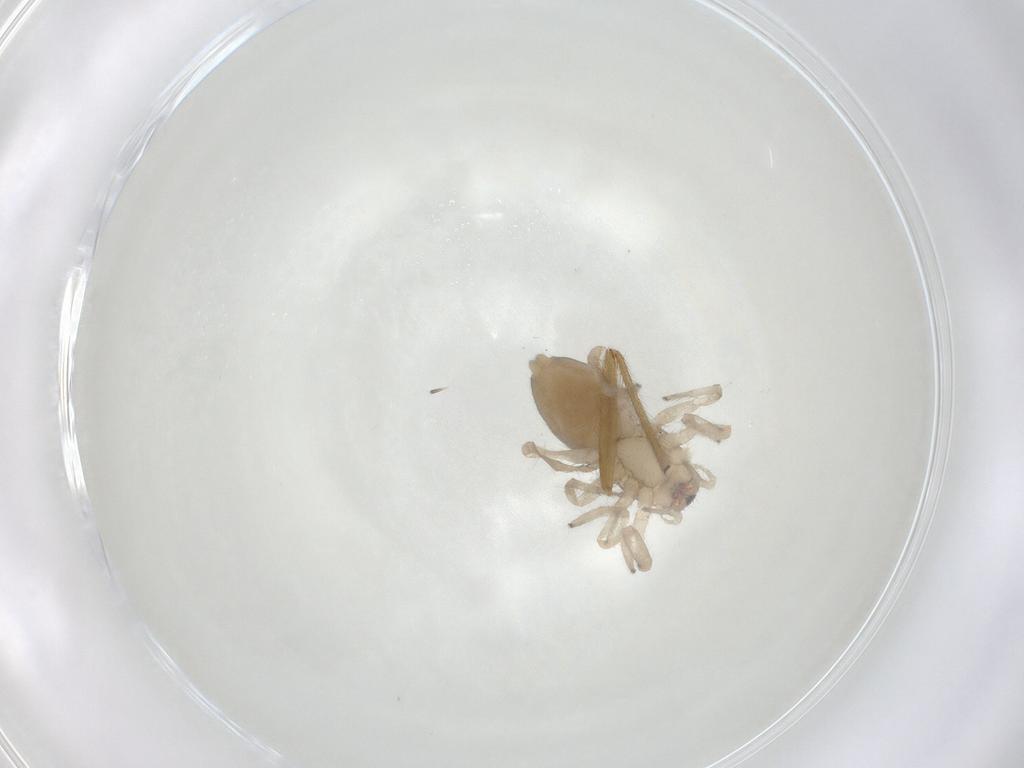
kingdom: Animalia
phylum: Arthropoda
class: Arachnida
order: Araneae
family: Trachelidae
